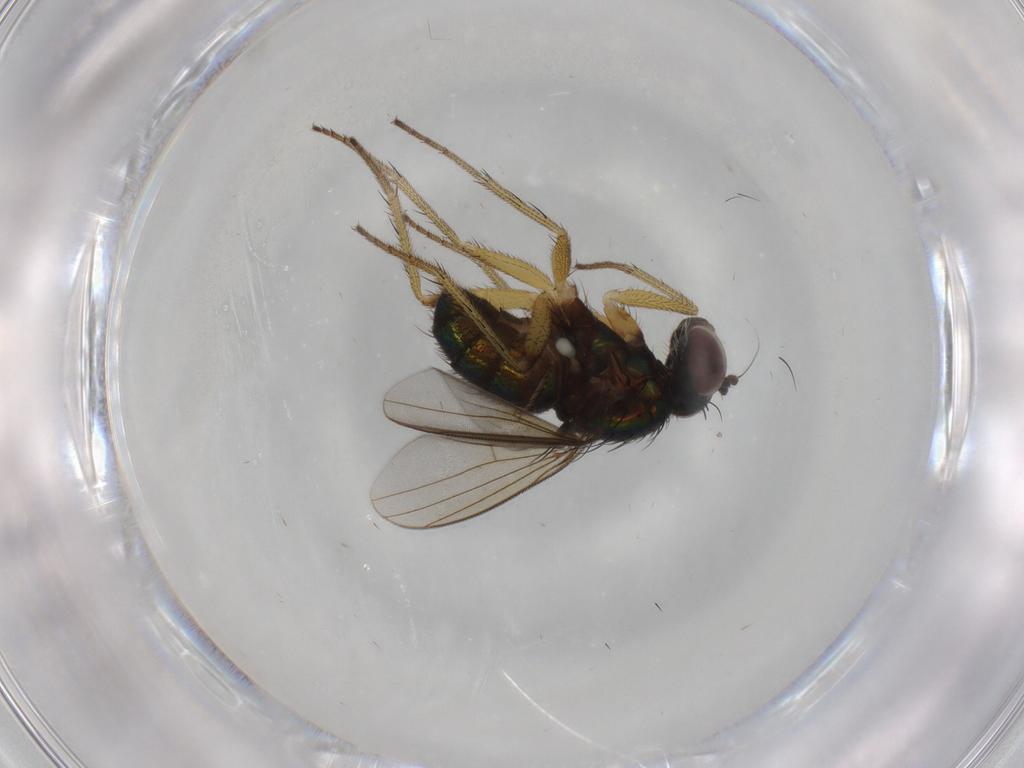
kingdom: Animalia
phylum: Arthropoda
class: Insecta
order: Diptera
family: Dolichopodidae
